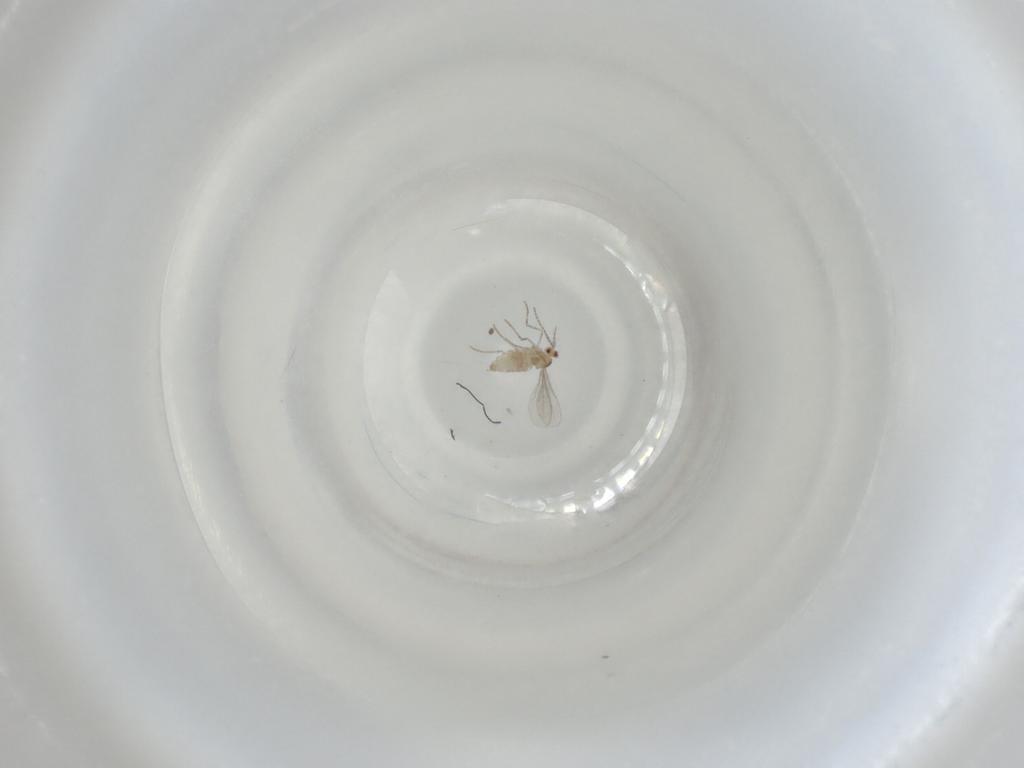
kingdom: Animalia
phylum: Arthropoda
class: Insecta
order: Diptera
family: Cecidomyiidae
